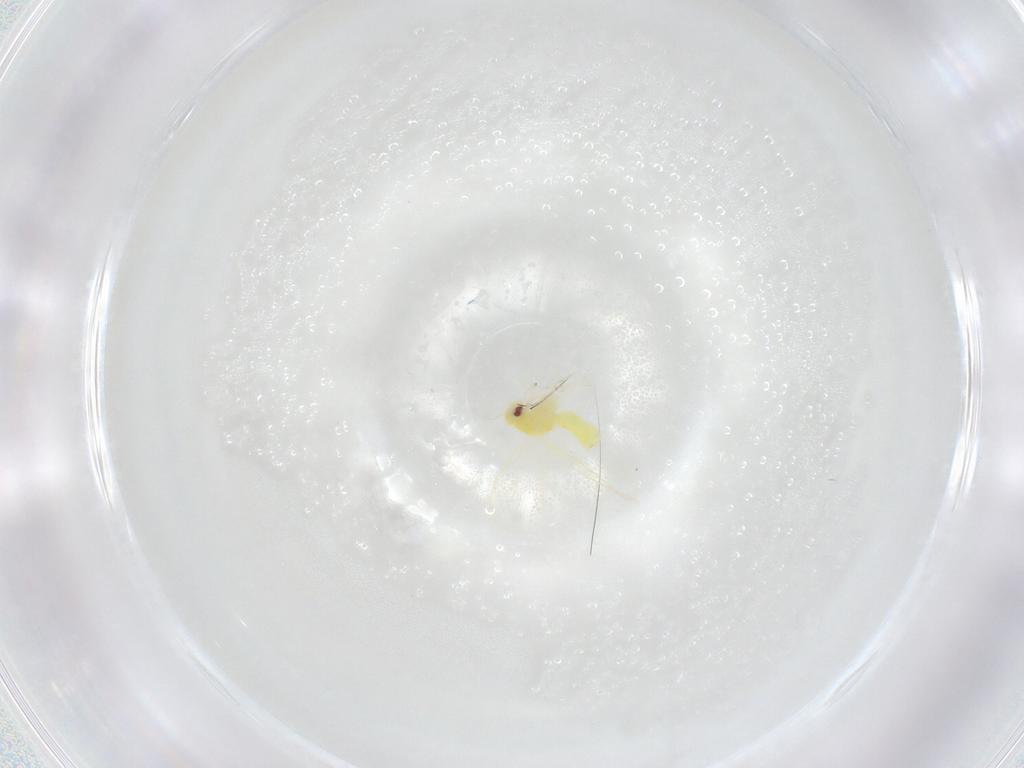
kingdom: Animalia
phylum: Arthropoda
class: Insecta
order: Hemiptera
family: Aleyrodidae
